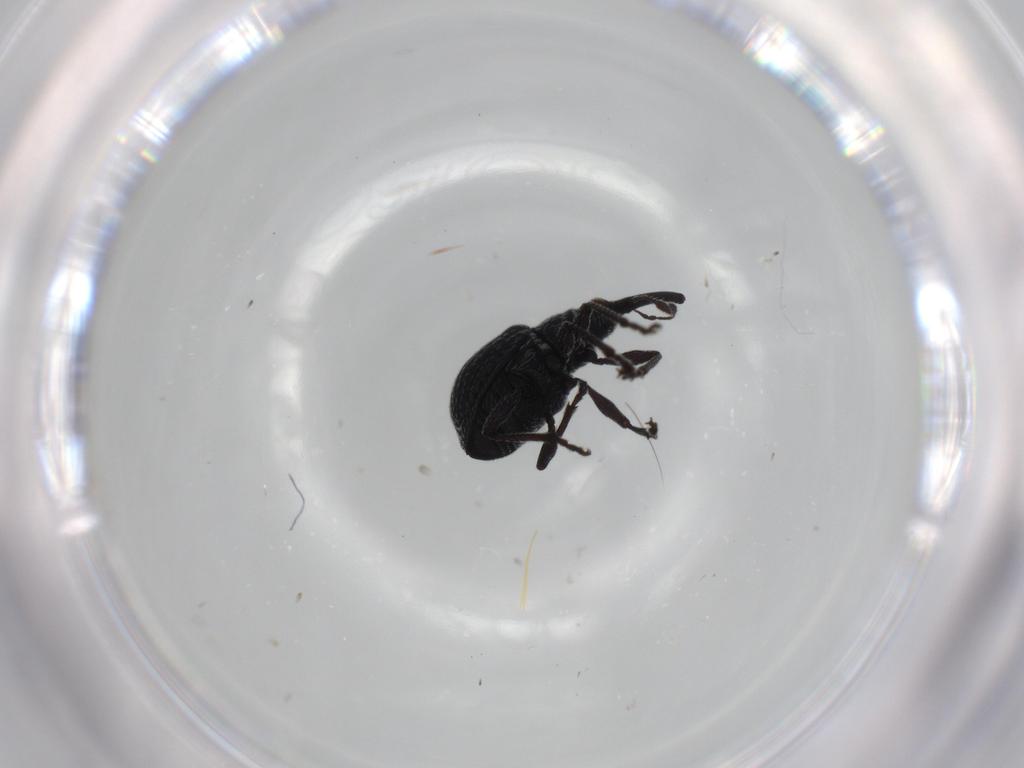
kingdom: Animalia
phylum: Arthropoda
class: Insecta
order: Coleoptera
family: Brentidae
